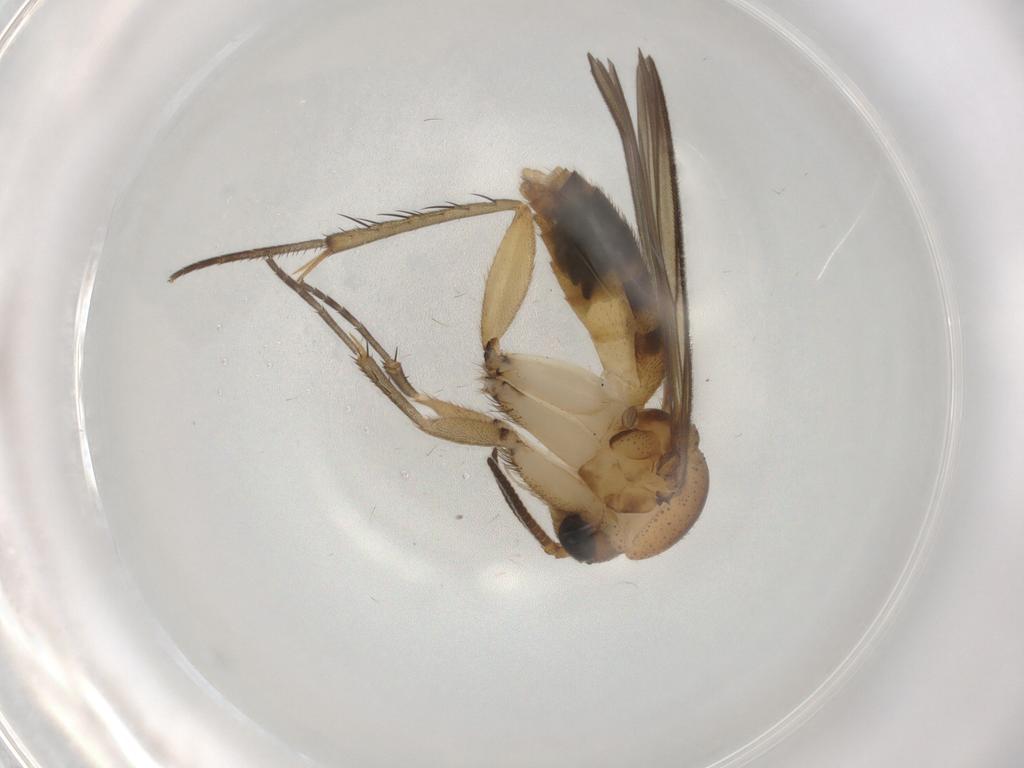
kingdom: Animalia
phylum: Arthropoda
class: Insecta
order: Diptera
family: Mycetophilidae
